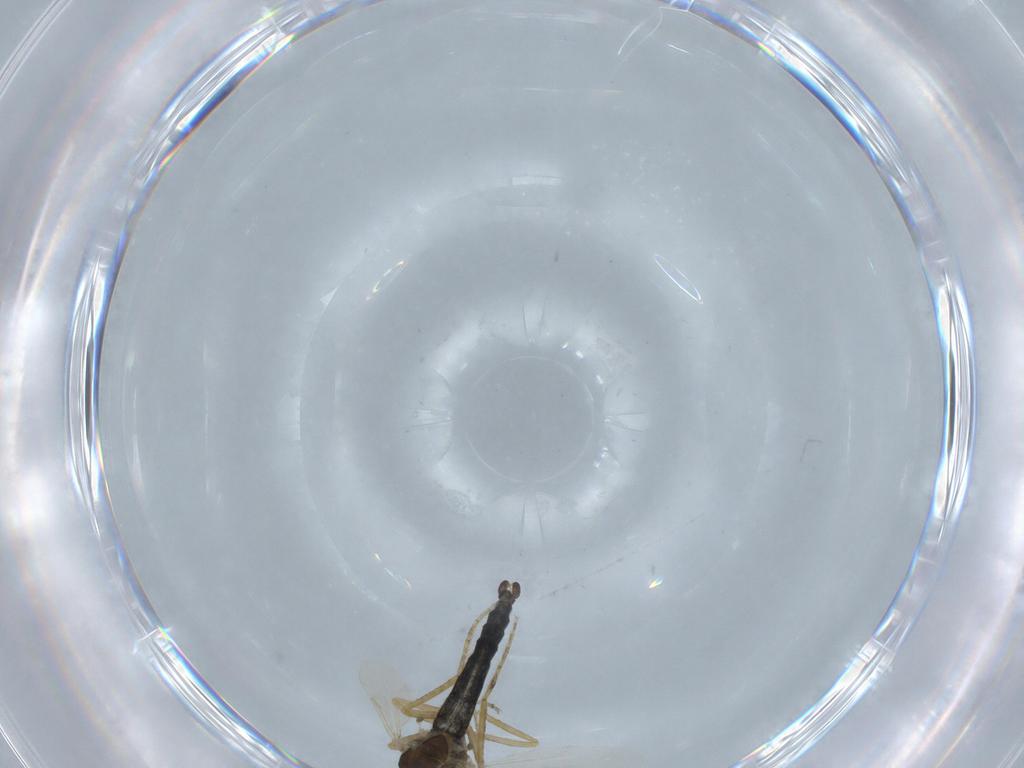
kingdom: Animalia
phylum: Arthropoda
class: Insecta
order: Diptera
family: Ceratopogonidae
